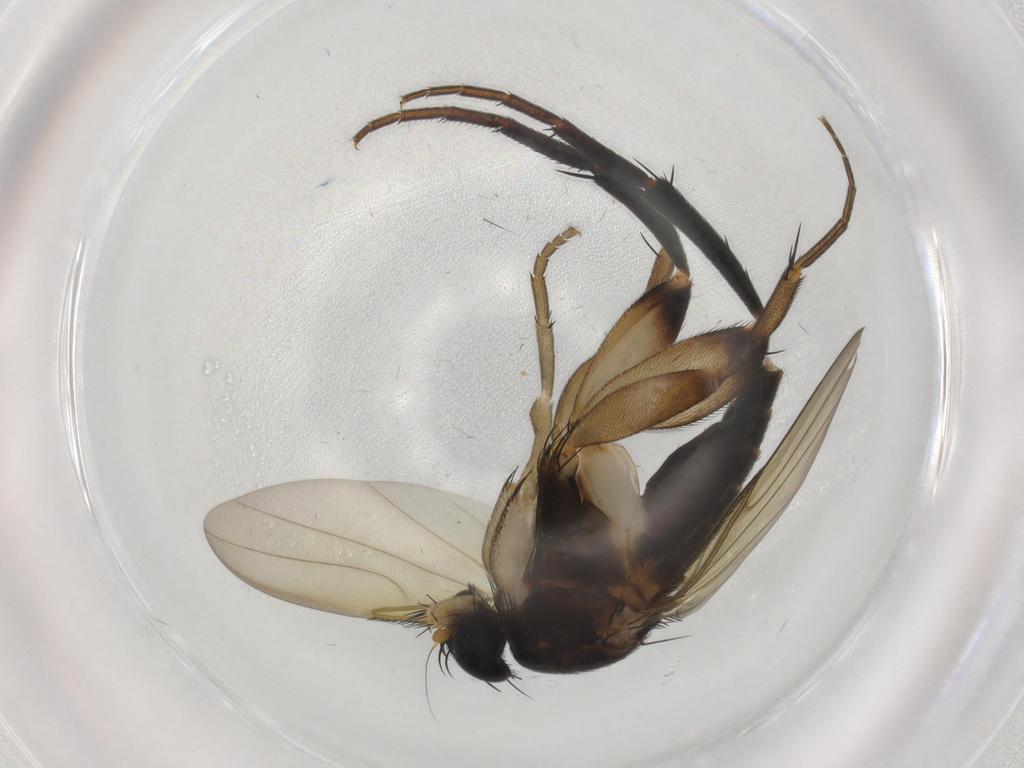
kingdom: Animalia
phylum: Arthropoda
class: Insecta
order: Diptera
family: Phoridae
